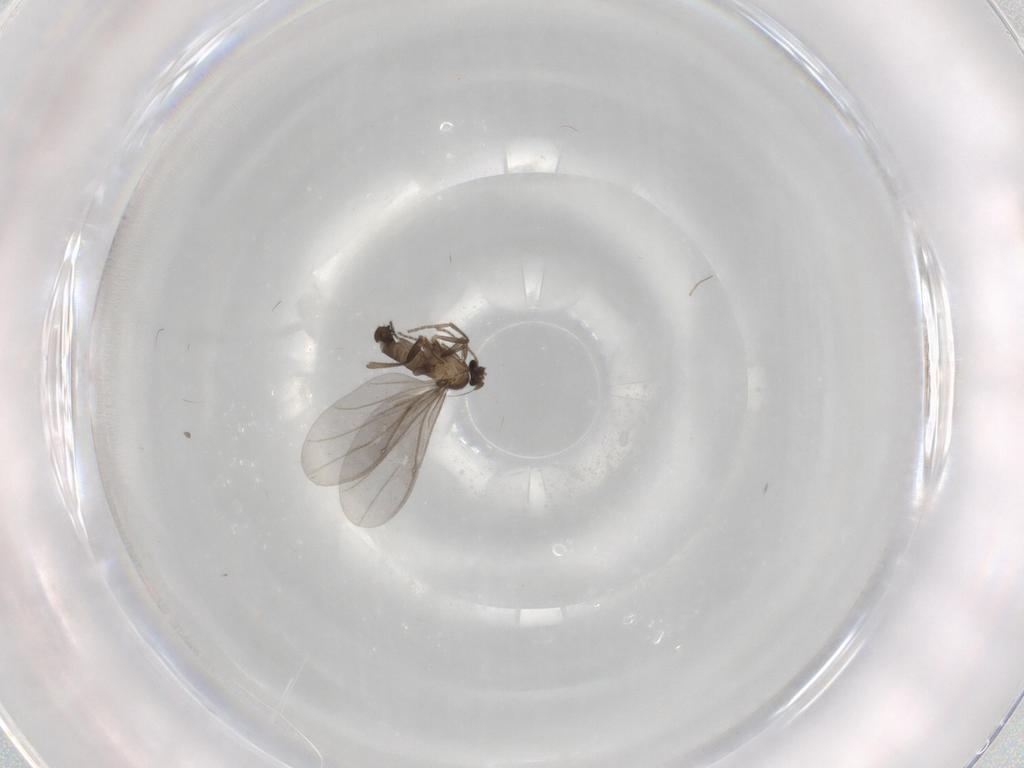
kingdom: Animalia
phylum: Arthropoda
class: Insecta
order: Diptera
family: Phoridae
